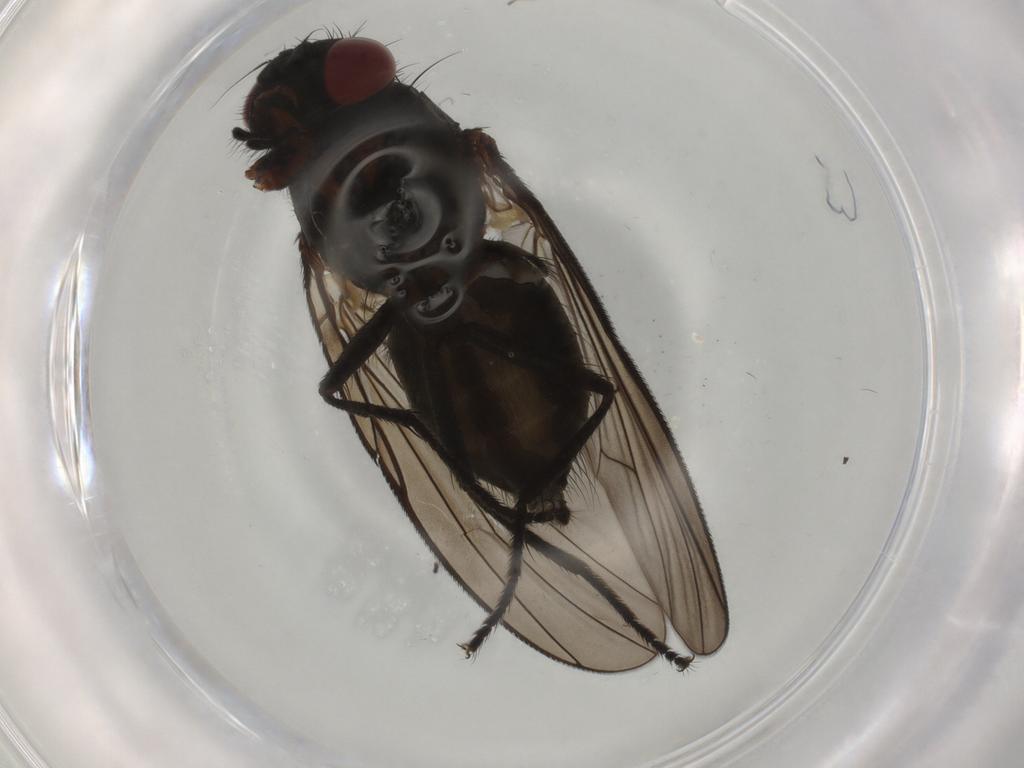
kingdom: Animalia
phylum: Arthropoda
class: Insecta
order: Diptera
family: Muscidae
